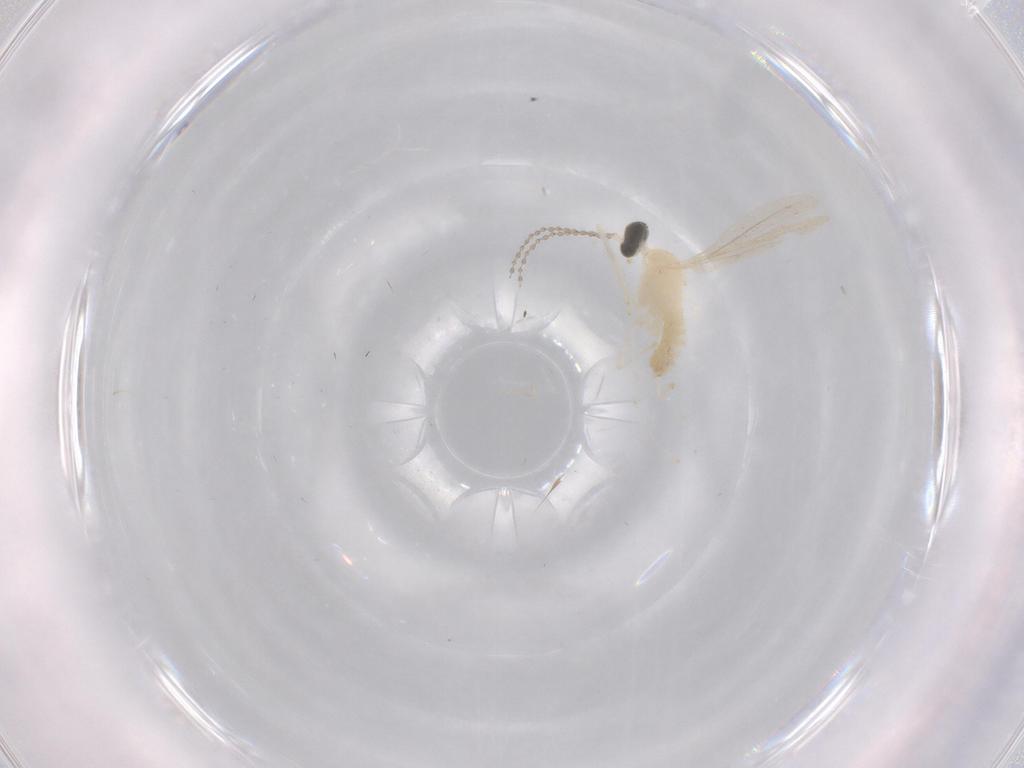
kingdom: Animalia
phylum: Arthropoda
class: Insecta
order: Diptera
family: Cecidomyiidae
